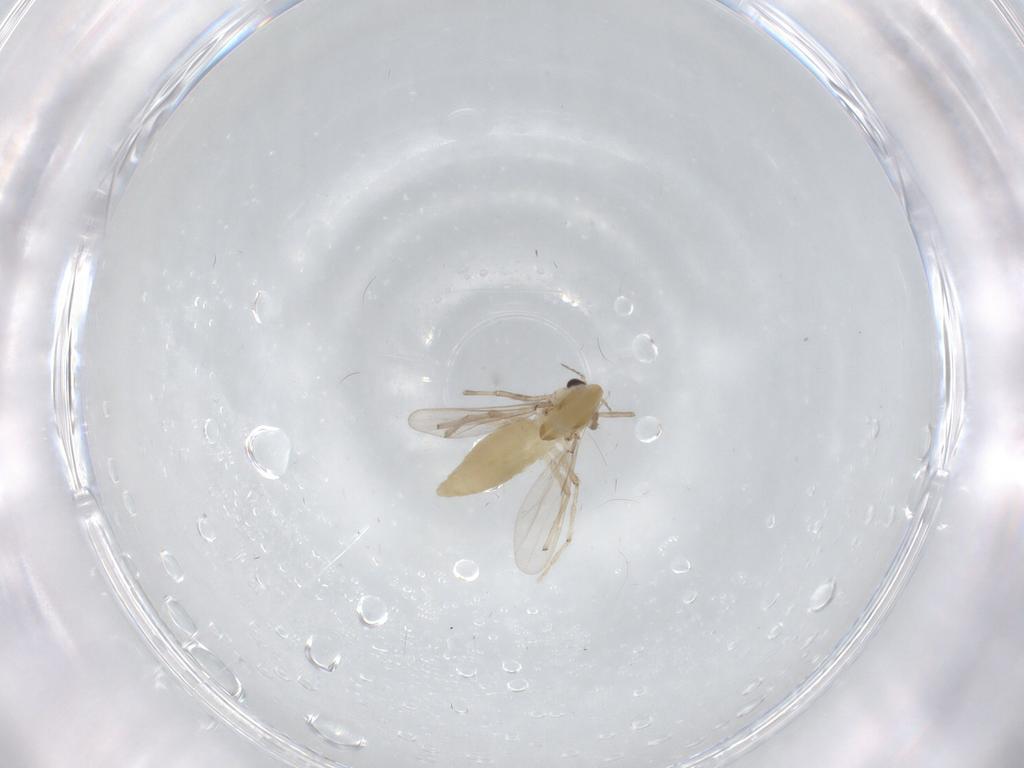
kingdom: Animalia
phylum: Arthropoda
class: Insecta
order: Diptera
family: Chironomidae
